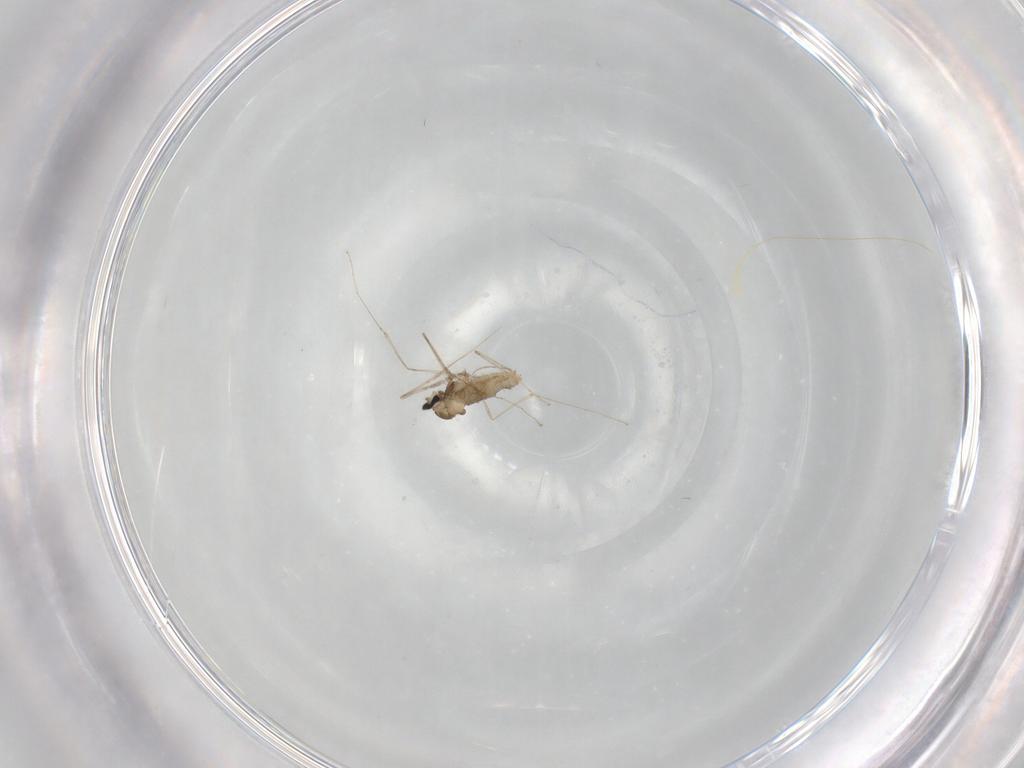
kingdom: Animalia
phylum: Arthropoda
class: Insecta
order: Diptera
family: Cecidomyiidae
